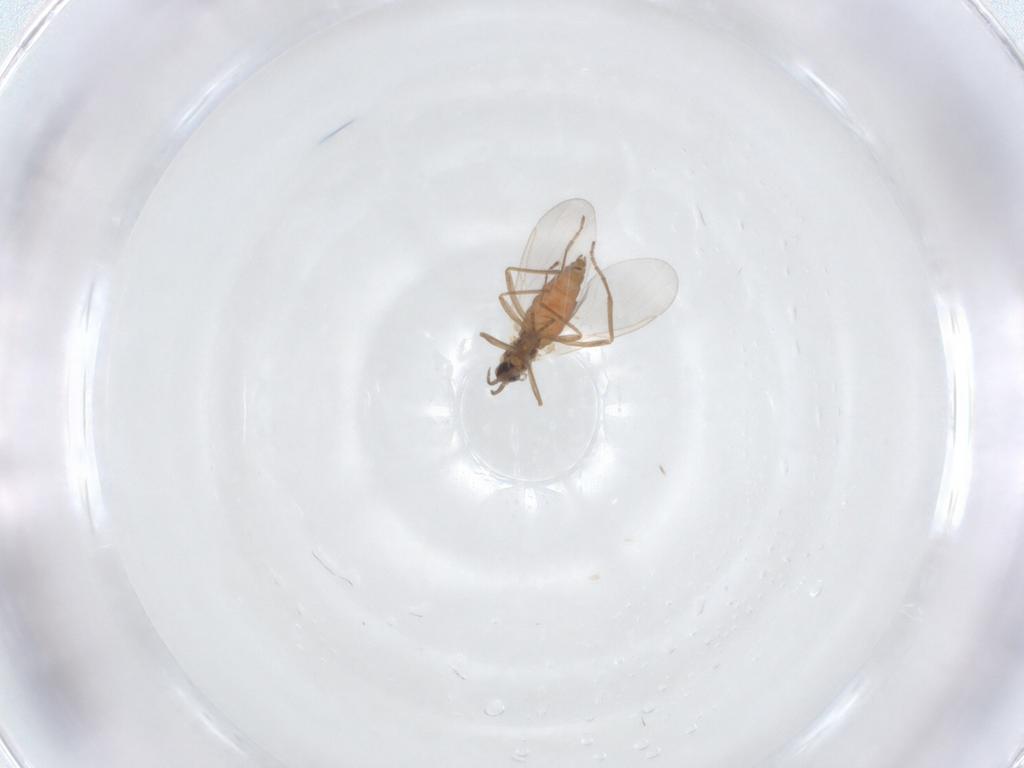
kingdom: Animalia
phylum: Arthropoda
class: Insecta
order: Diptera
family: Cecidomyiidae
